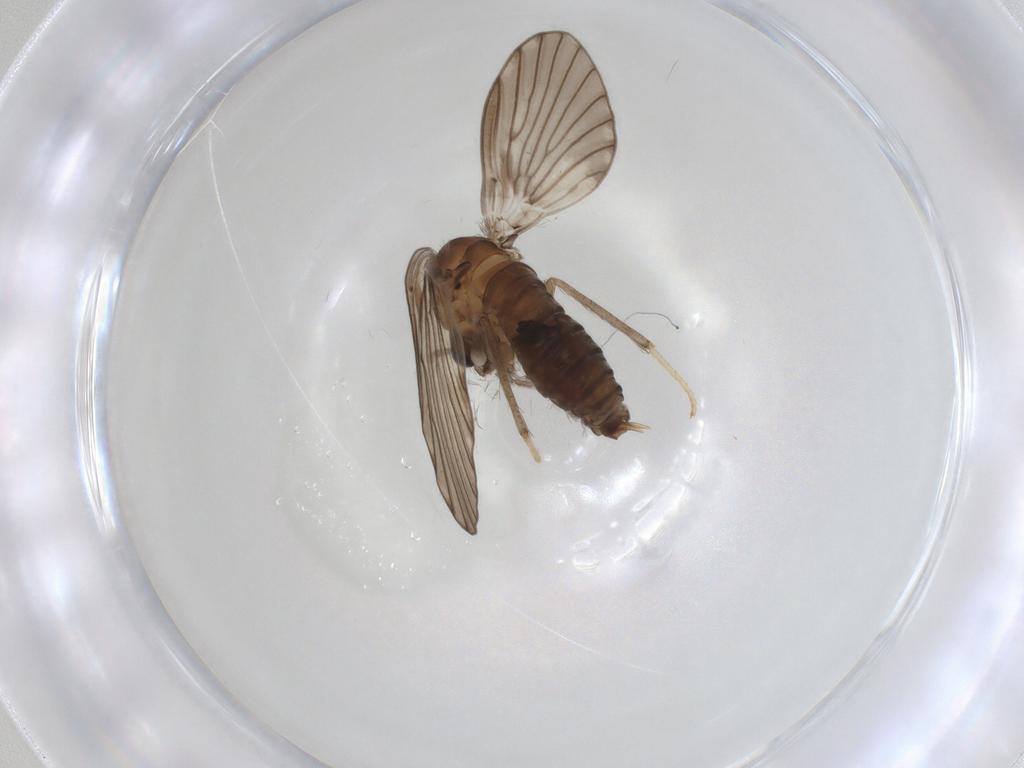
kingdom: Animalia
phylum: Arthropoda
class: Insecta
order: Diptera
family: Psychodidae
